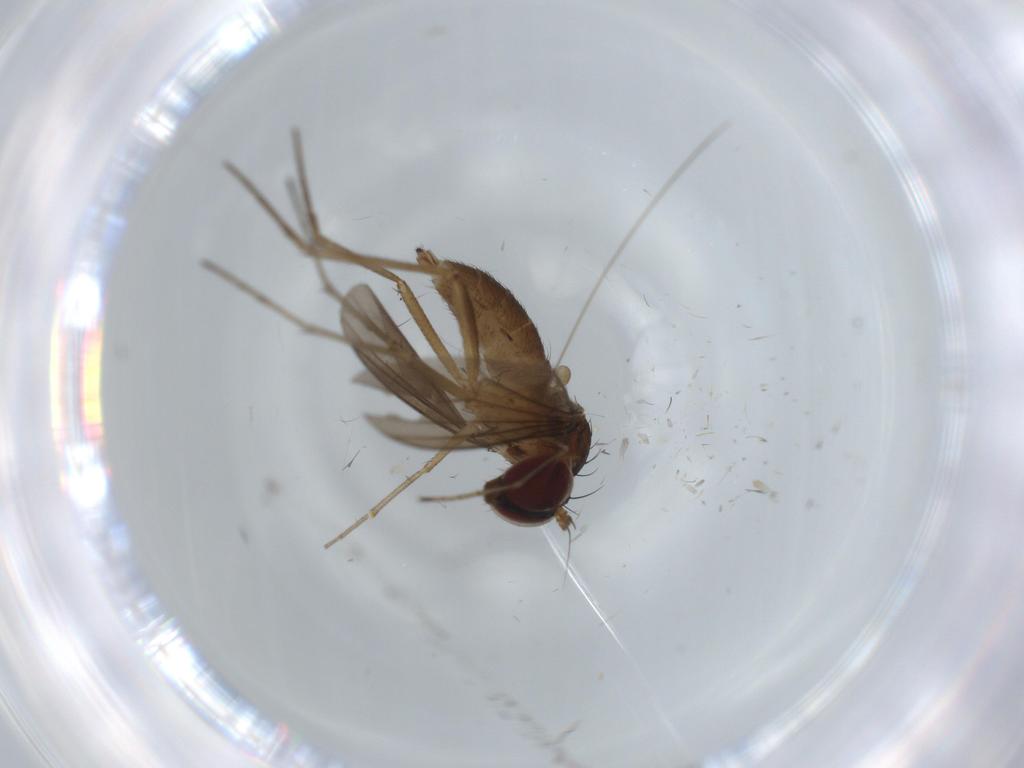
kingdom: Animalia
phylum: Arthropoda
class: Insecta
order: Diptera
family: Dolichopodidae
